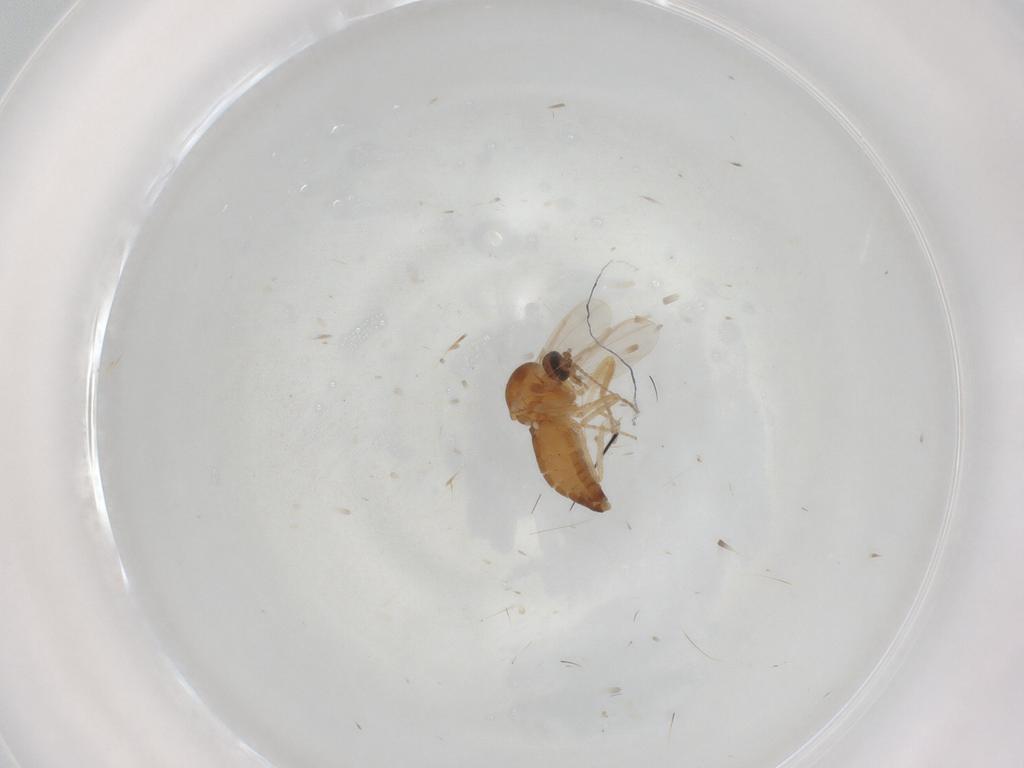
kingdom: Animalia
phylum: Arthropoda
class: Insecta
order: Diptera
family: Ceratopogonidae
